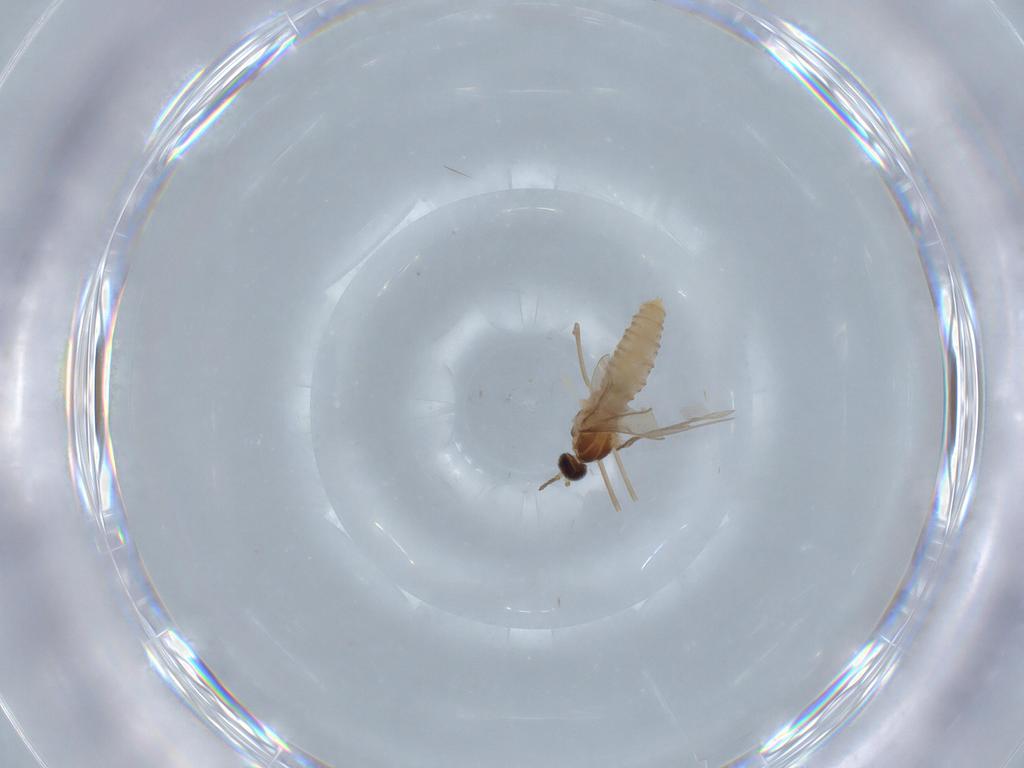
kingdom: Animalia
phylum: Arthropoda
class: Insecta
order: Diptera
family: Cecidomyiidae
